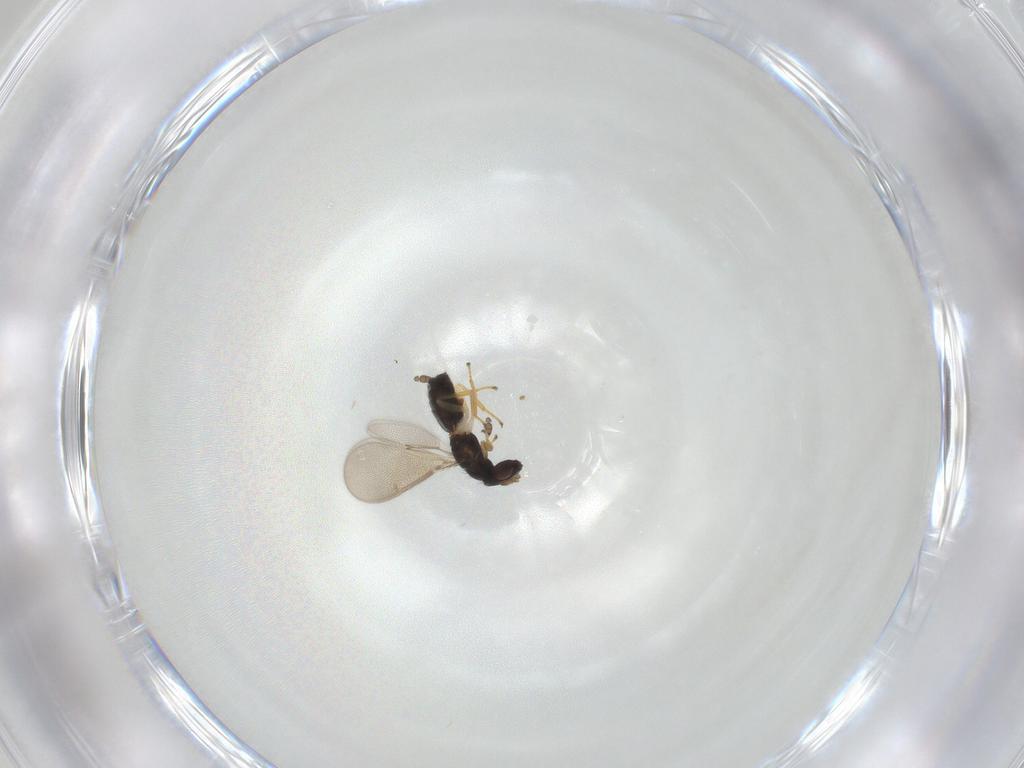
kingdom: Animalia
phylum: Arthropoda
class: Insecta
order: Hymenoptera
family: Eulophidae
